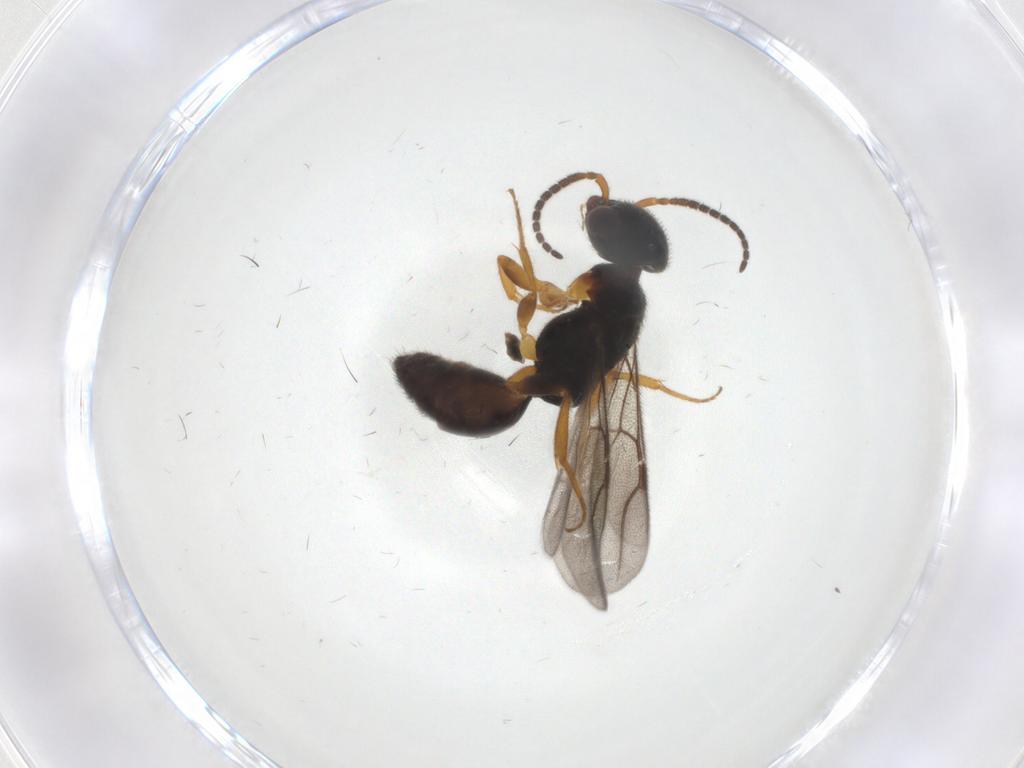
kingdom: Animalia
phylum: Arthropoda
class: Insecta
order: Hymenoptera
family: Bethylidae
